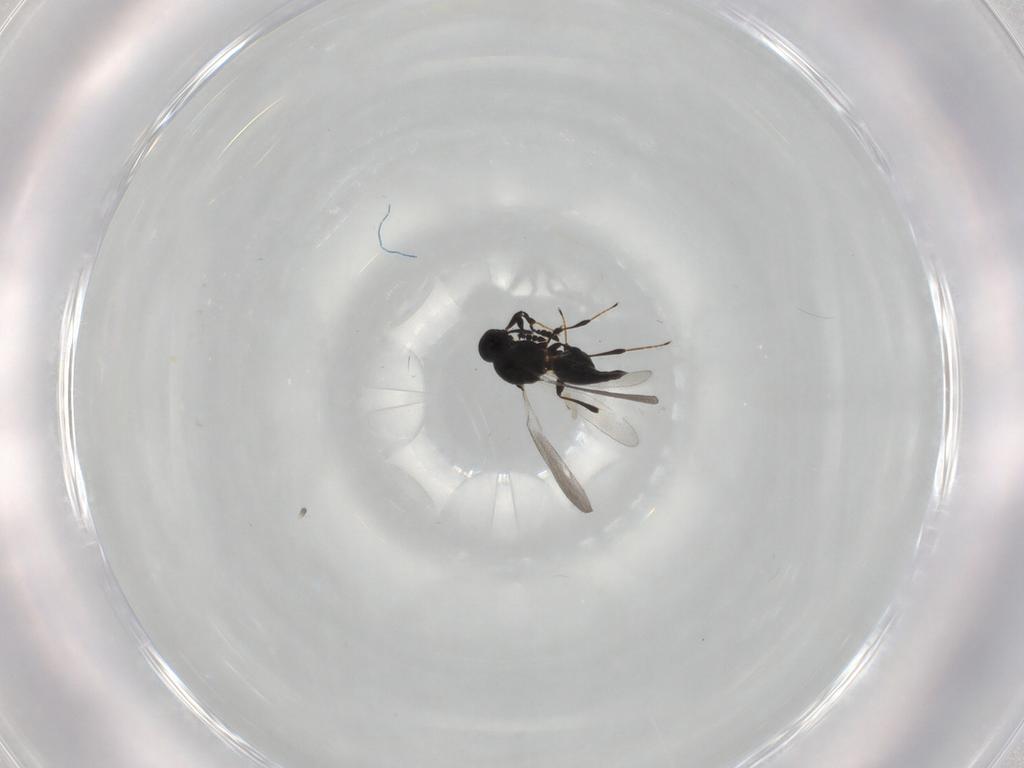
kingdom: Animalia
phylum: Arthropoda
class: Insecta
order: Hymenoptera
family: Platygastridae
